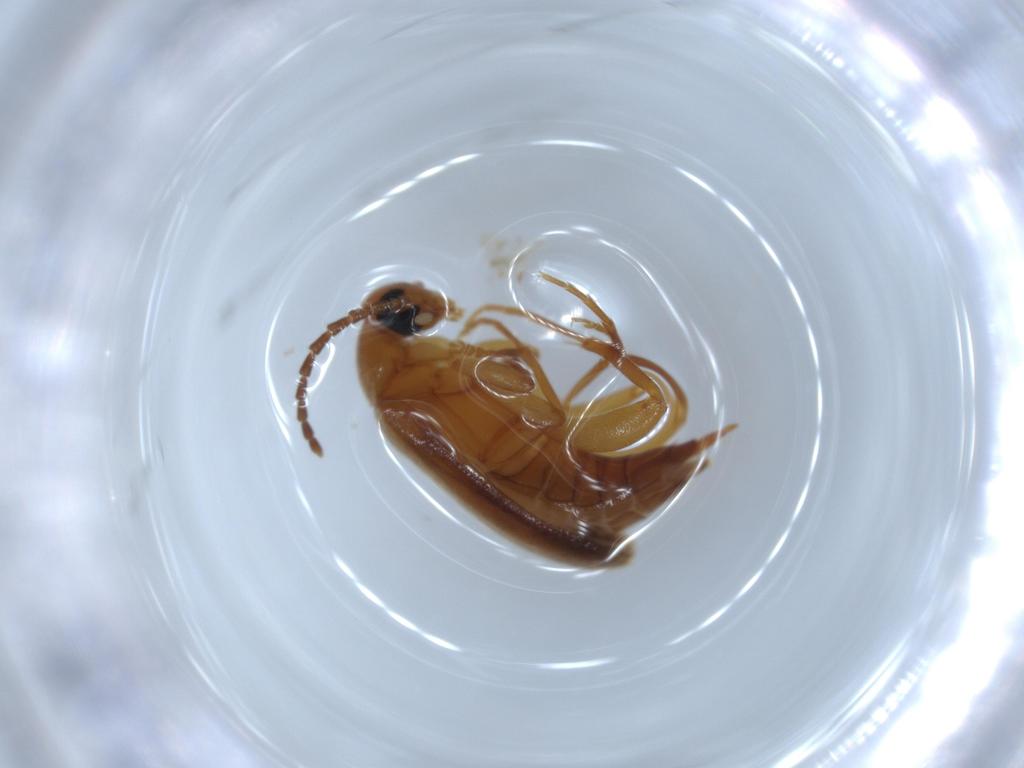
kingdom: Animalia
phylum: Arthropoda
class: Insecta
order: Coleoptera
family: Scraptiidae
